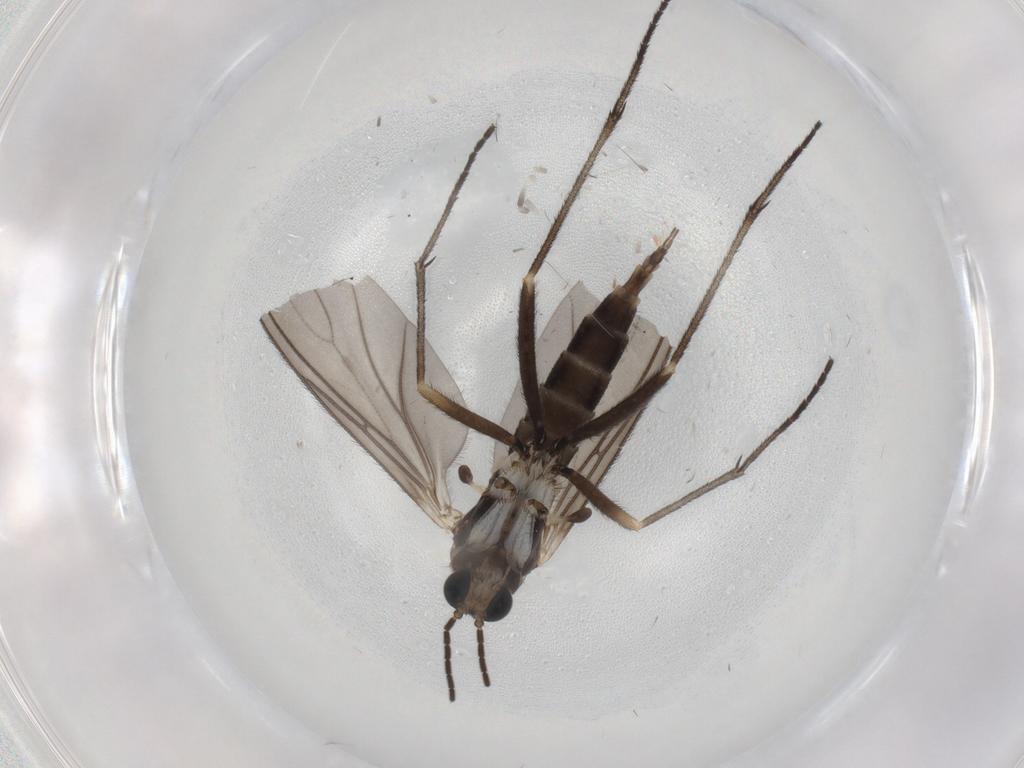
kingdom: Animalia
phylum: Arthropoda
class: Insecta
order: Diptera
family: Sciaridae
